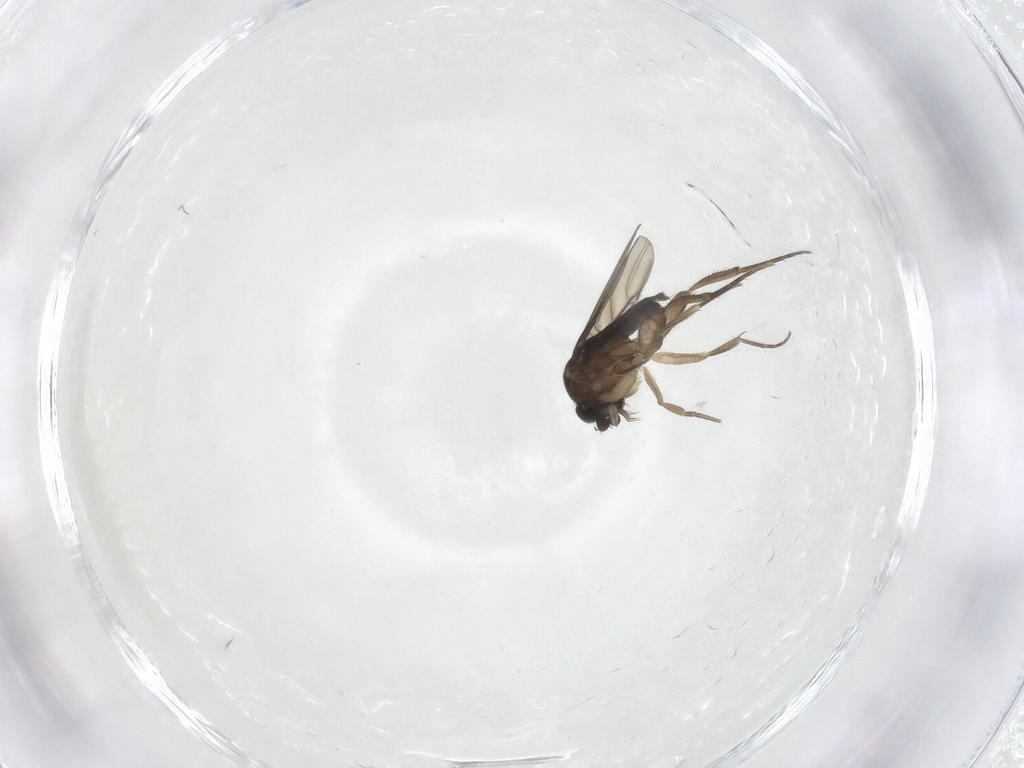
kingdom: Animalia
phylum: Arthropoda
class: Insecta
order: Diptera
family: Phoridae
